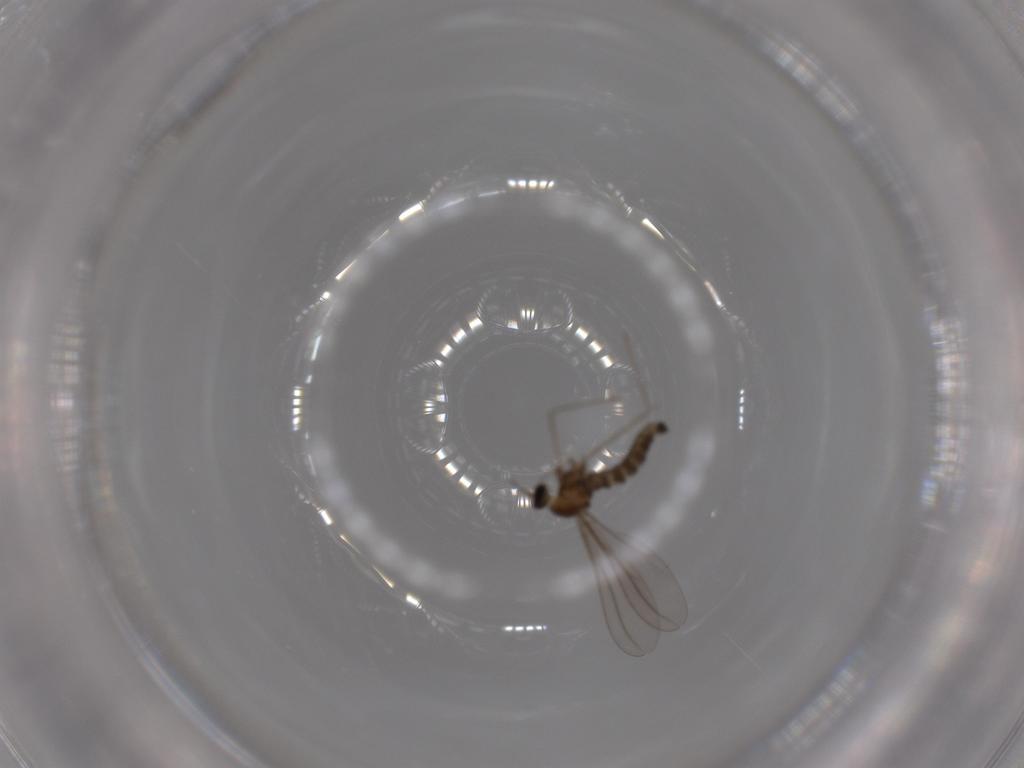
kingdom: Animalia
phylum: Arthropoda
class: Insecta
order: Diptera
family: Cecidomyiidae
